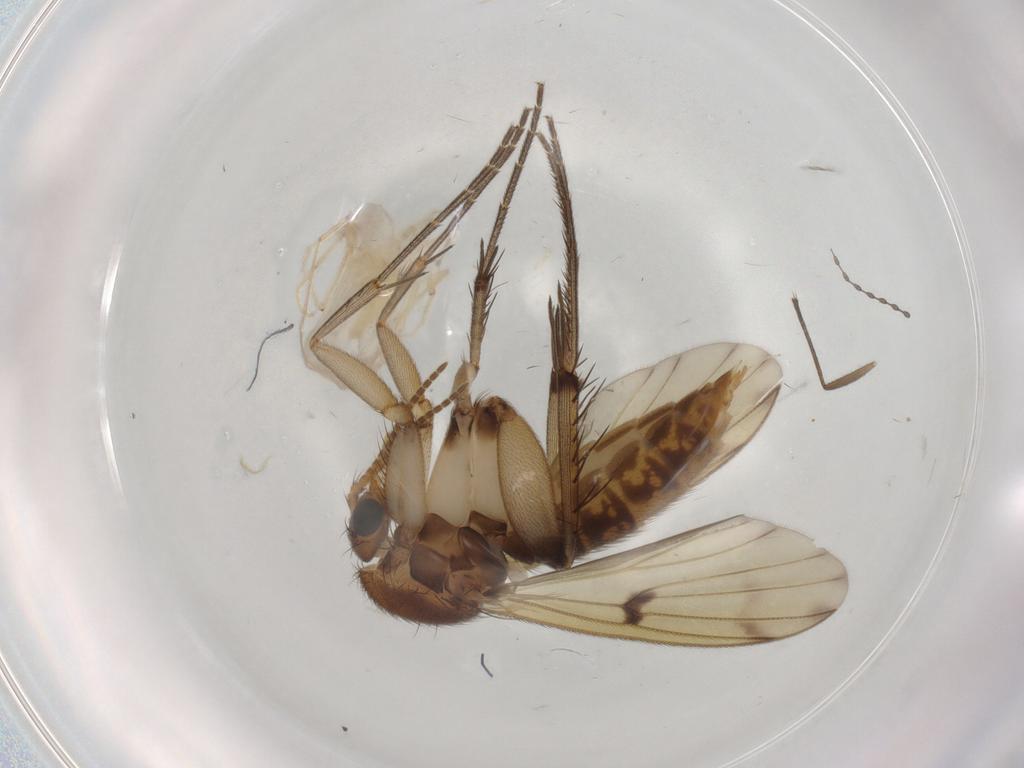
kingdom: Animalia
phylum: Arthropoda
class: Insecta
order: Diptera
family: Mycetophilidae
